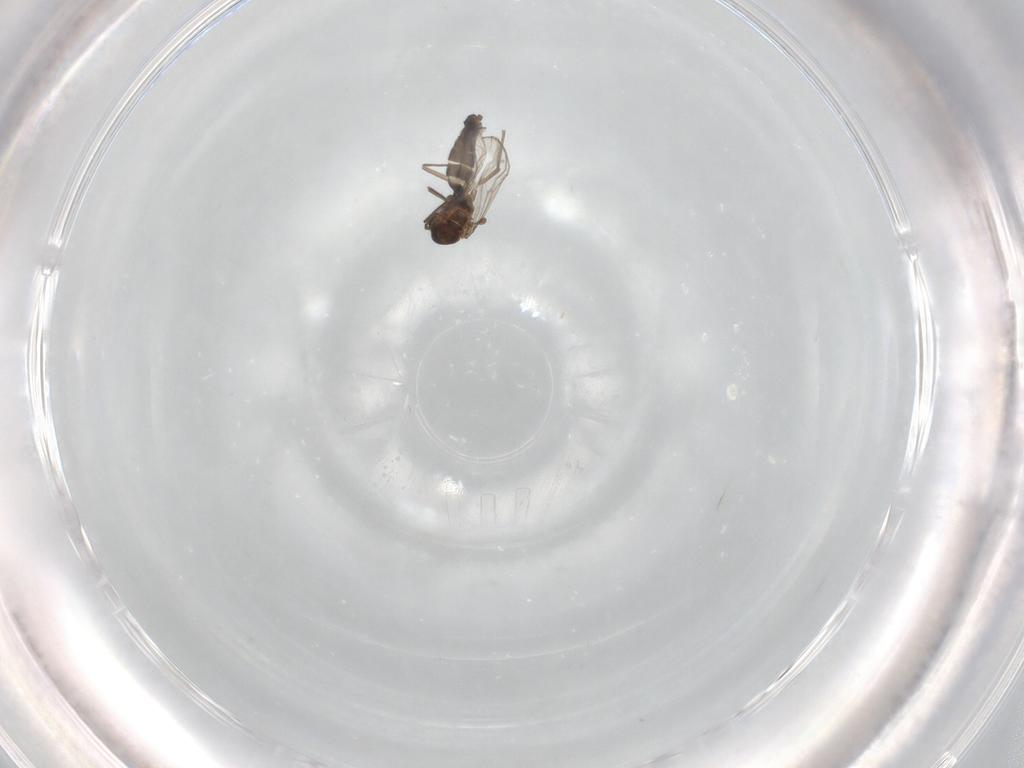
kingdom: Animalia
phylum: Arthropoda
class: Insecta
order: Diptera
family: Chironomidae
